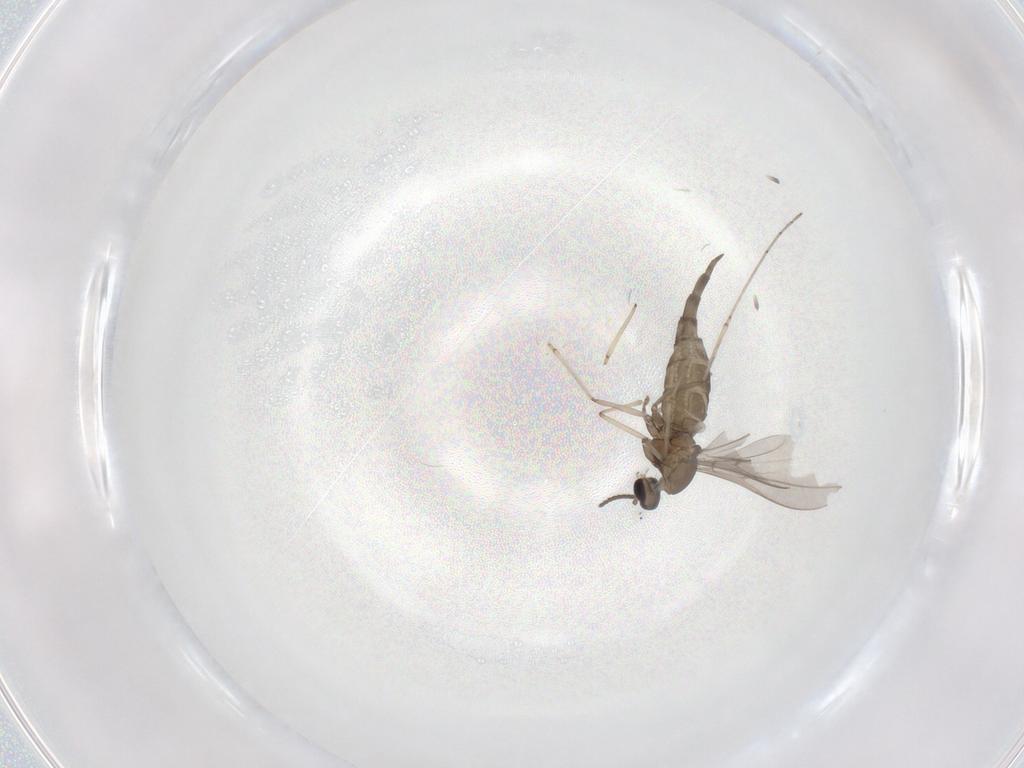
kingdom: Animalia
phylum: Arthropoda
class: Insecta
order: Diptera
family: Cecidomyiidae
